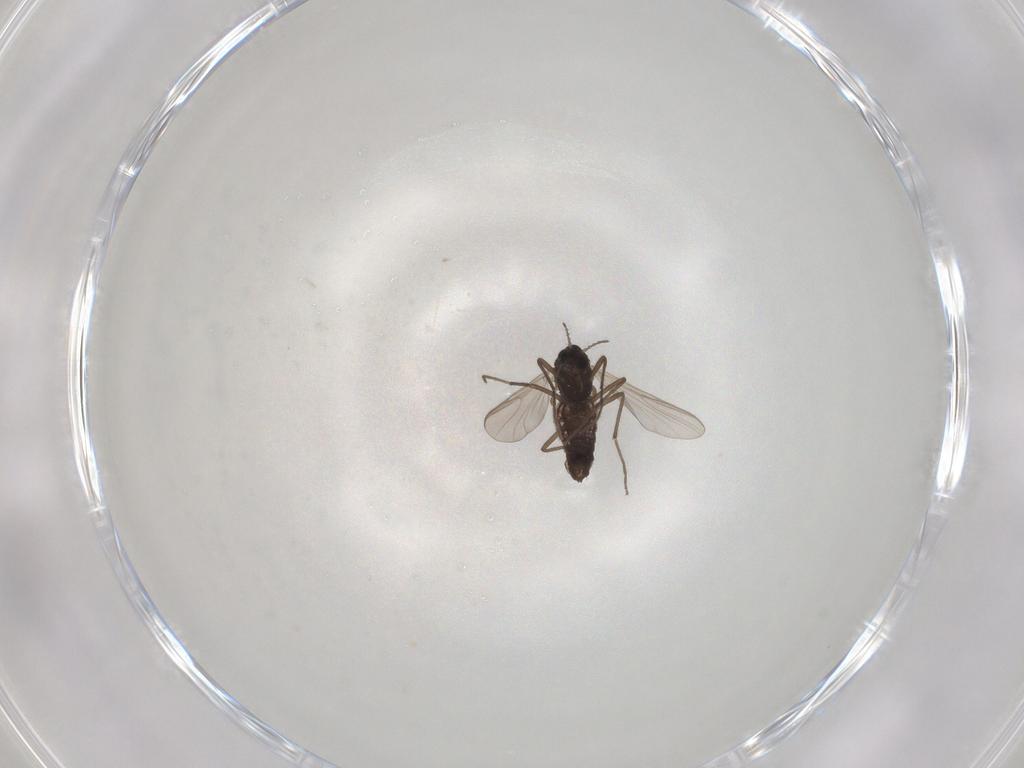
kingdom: Animalia
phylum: Arthropoda
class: Insecta
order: Diptera
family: Chironomidae
